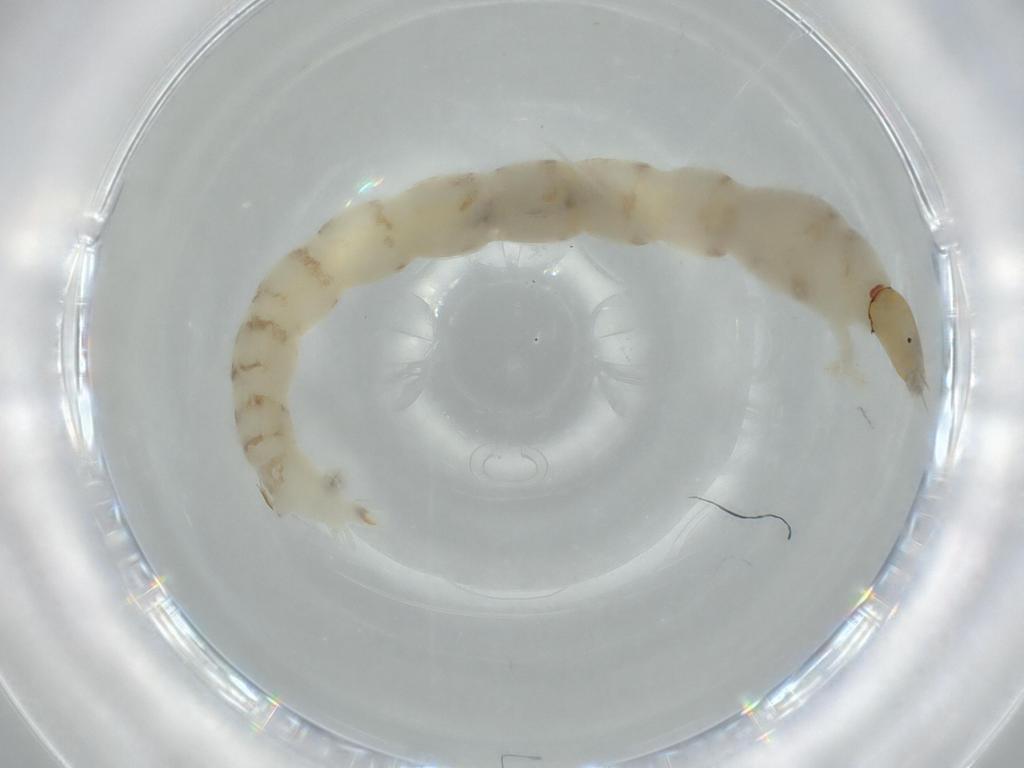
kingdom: Animalia
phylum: Arthropoda
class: Insecta
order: Diptera
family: Chironomidae
